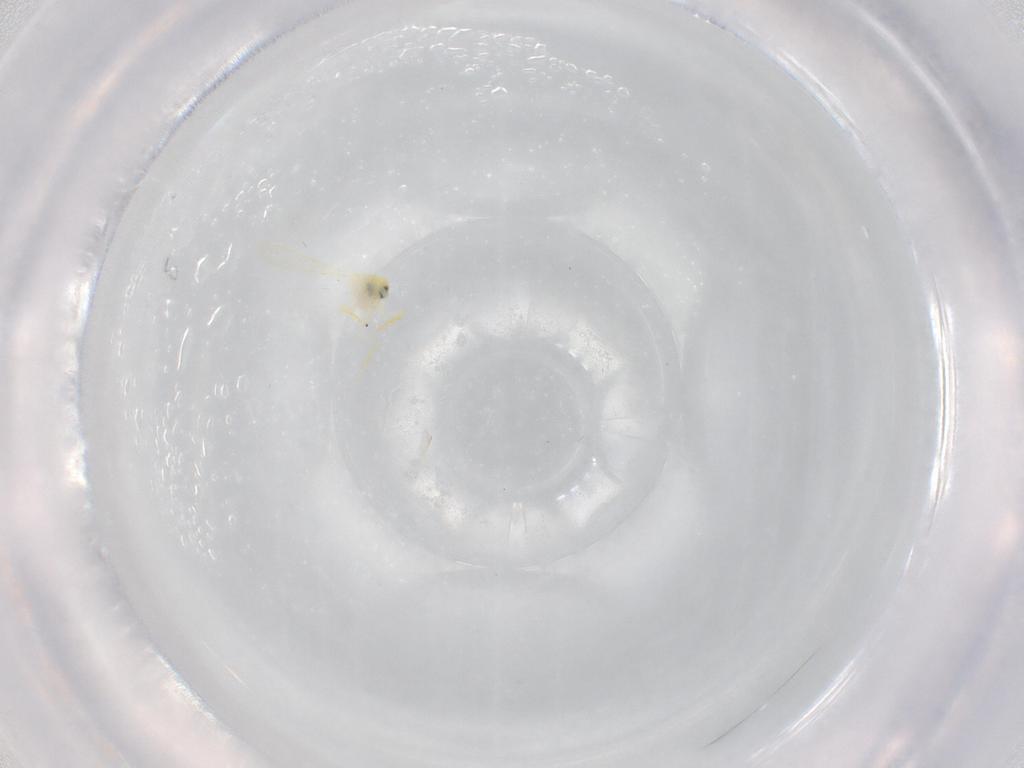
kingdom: Animalia
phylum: Arthropoda
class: Insecta
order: Hemiptera
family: Aleyrodidae
